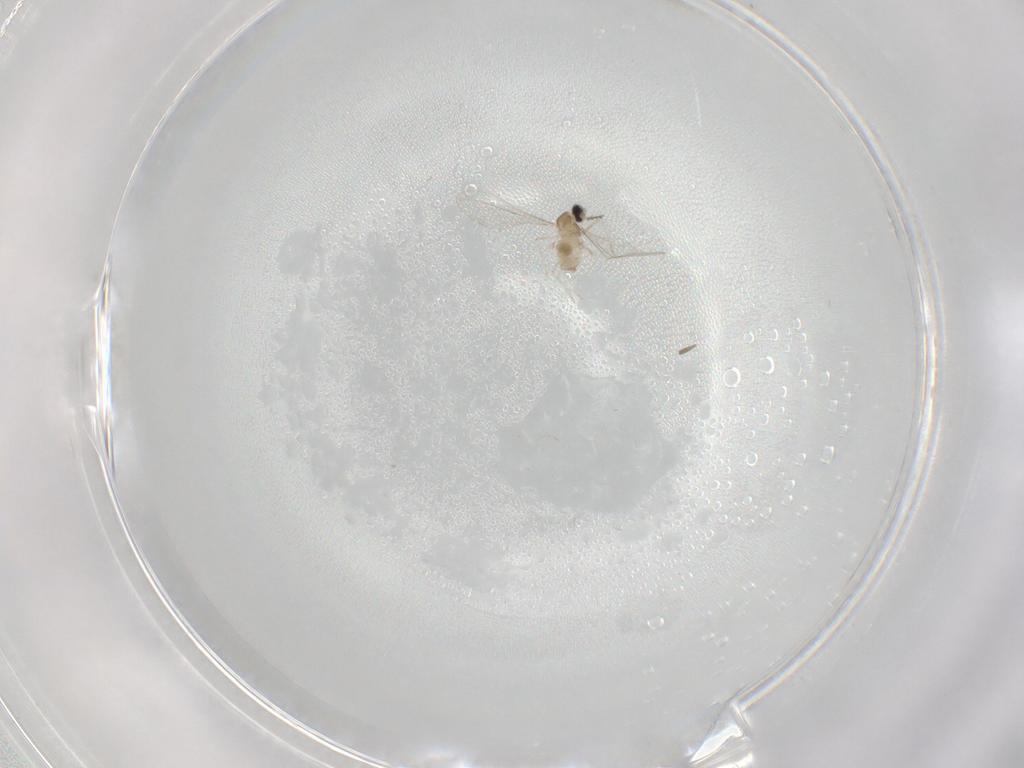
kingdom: Animalia
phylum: Arthropoda
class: Insecta
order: Diptera
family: Cecidomyiidae
